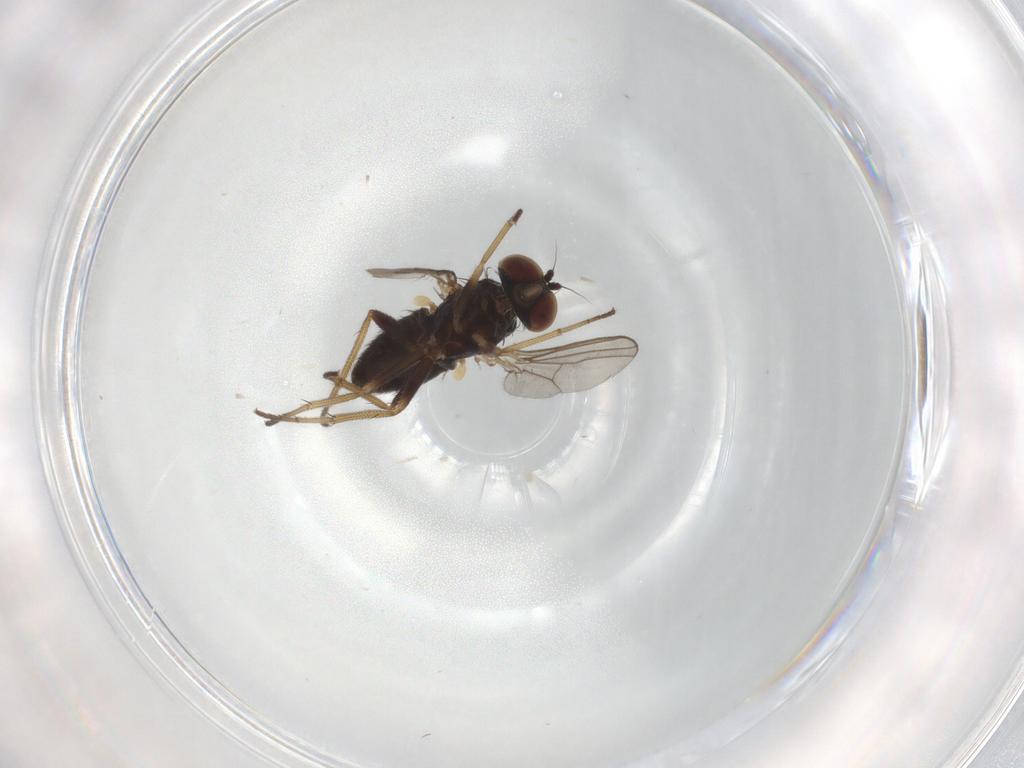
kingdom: Animalia
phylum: Arthropoda
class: Insecta
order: Diptera
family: Dolichopodidae
